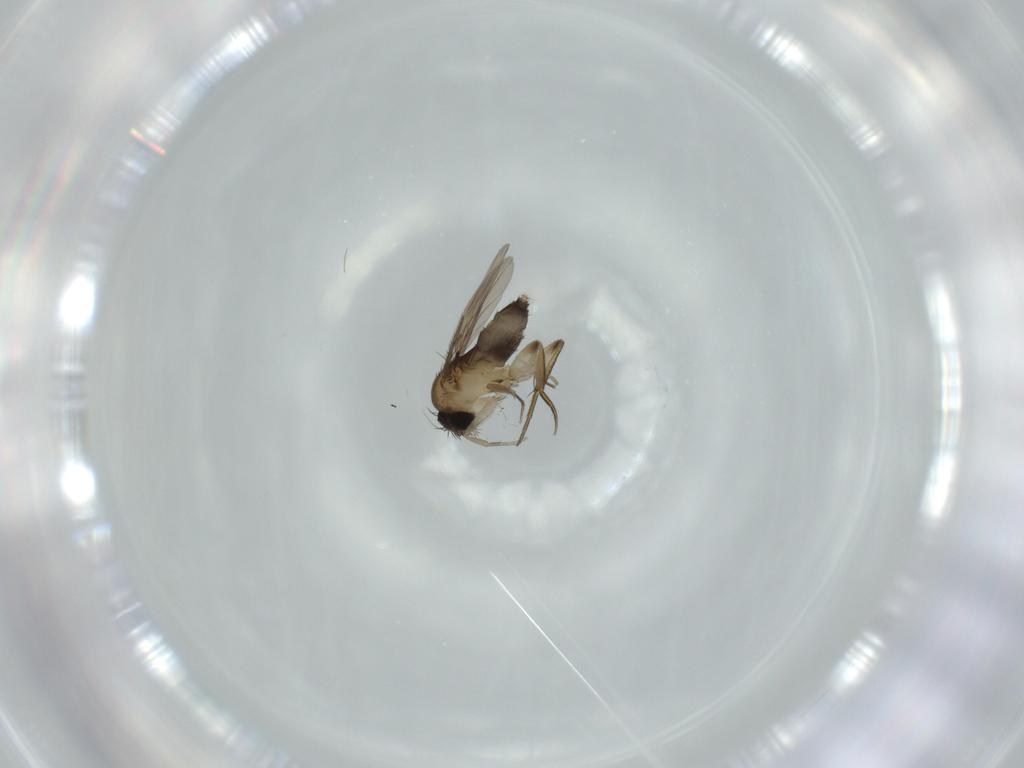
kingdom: Animalia
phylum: Arthropoda
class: Insecta
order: Diptera
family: Phoridae
